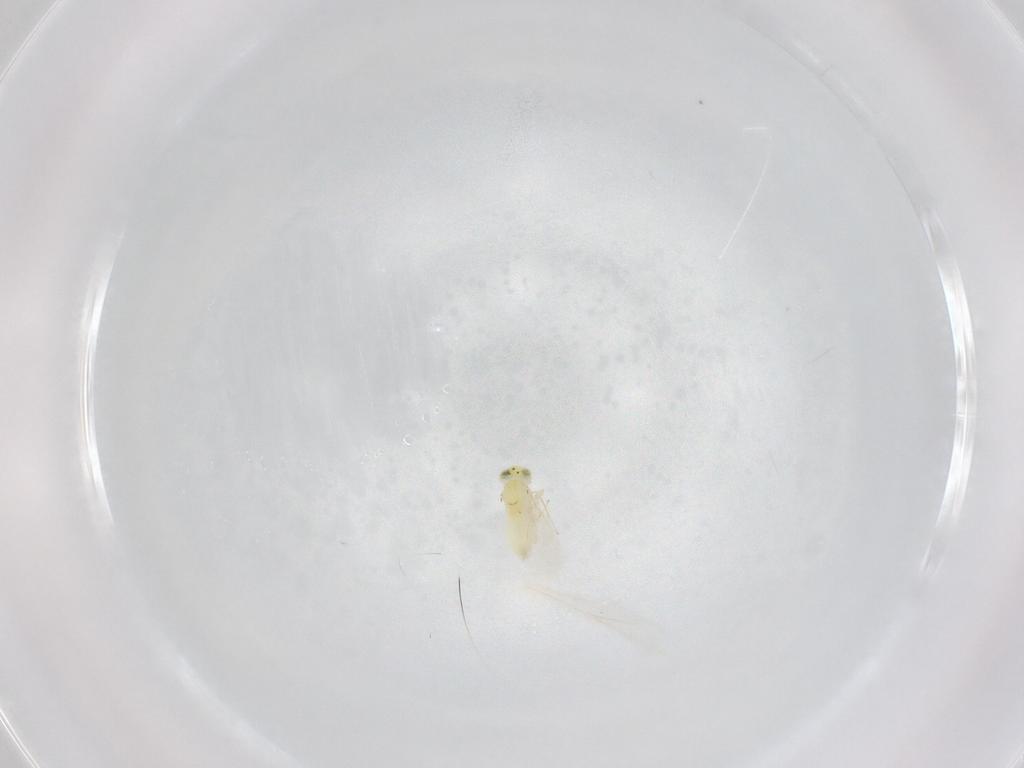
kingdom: Animalia
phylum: Arthropoda
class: Insecta
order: Hymenoptera
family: Aphelinidae
